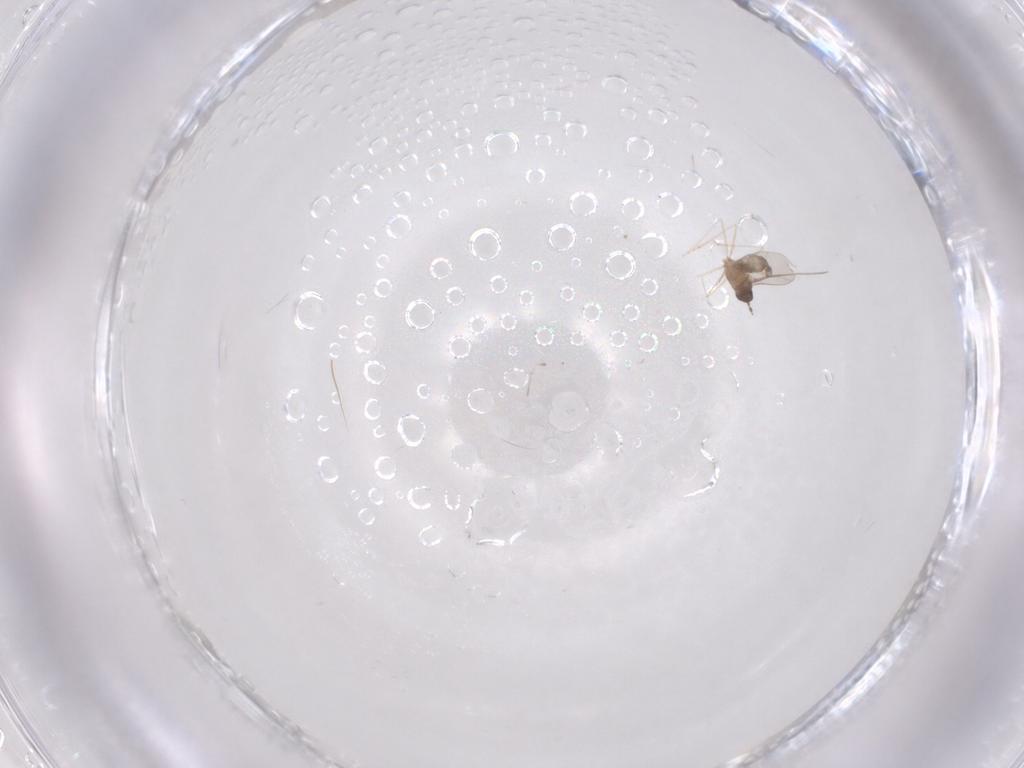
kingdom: Animalia
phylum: Arthropoda
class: Insecta
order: Diptera
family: Cecidomyiidae
